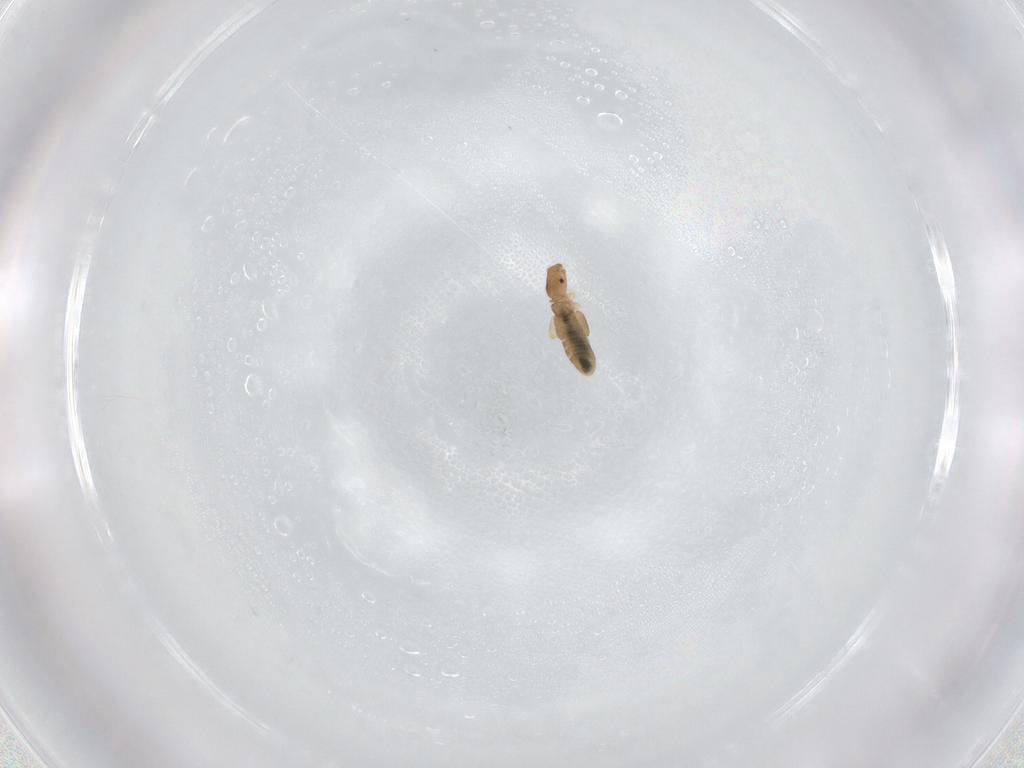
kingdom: Animalia
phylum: Arthropoda
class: Insecta
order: Psocodea
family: Liposcelididae
